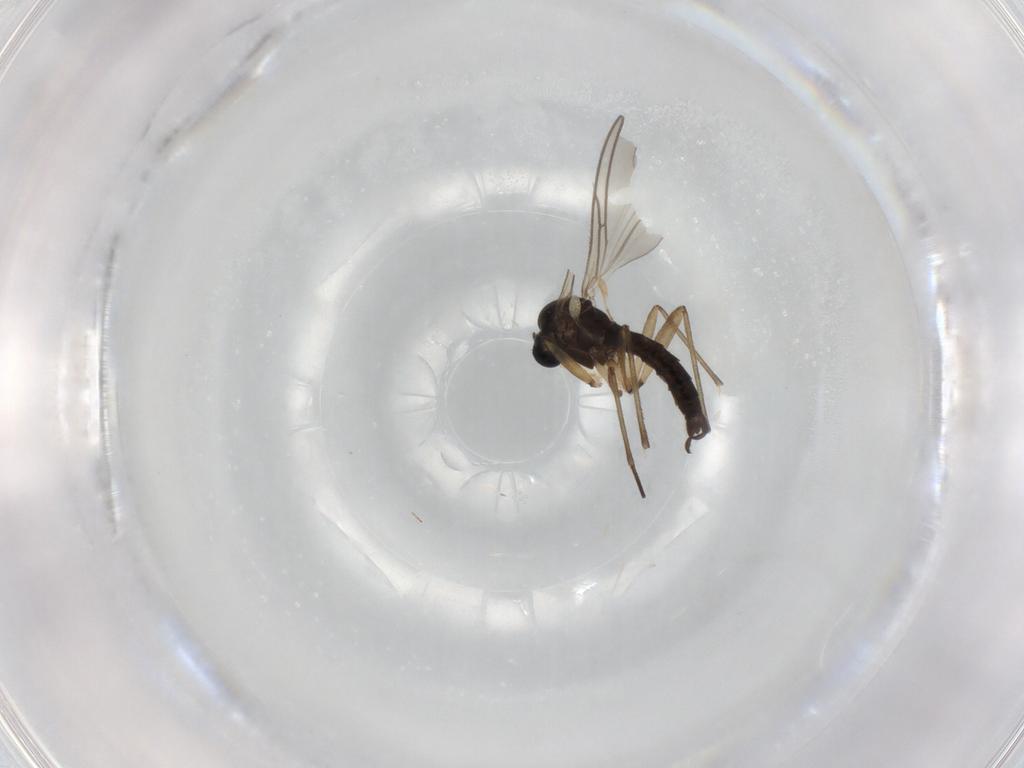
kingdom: Animalia
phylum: Arthropoda
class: Insecta
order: Diptera
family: Sciaridae
